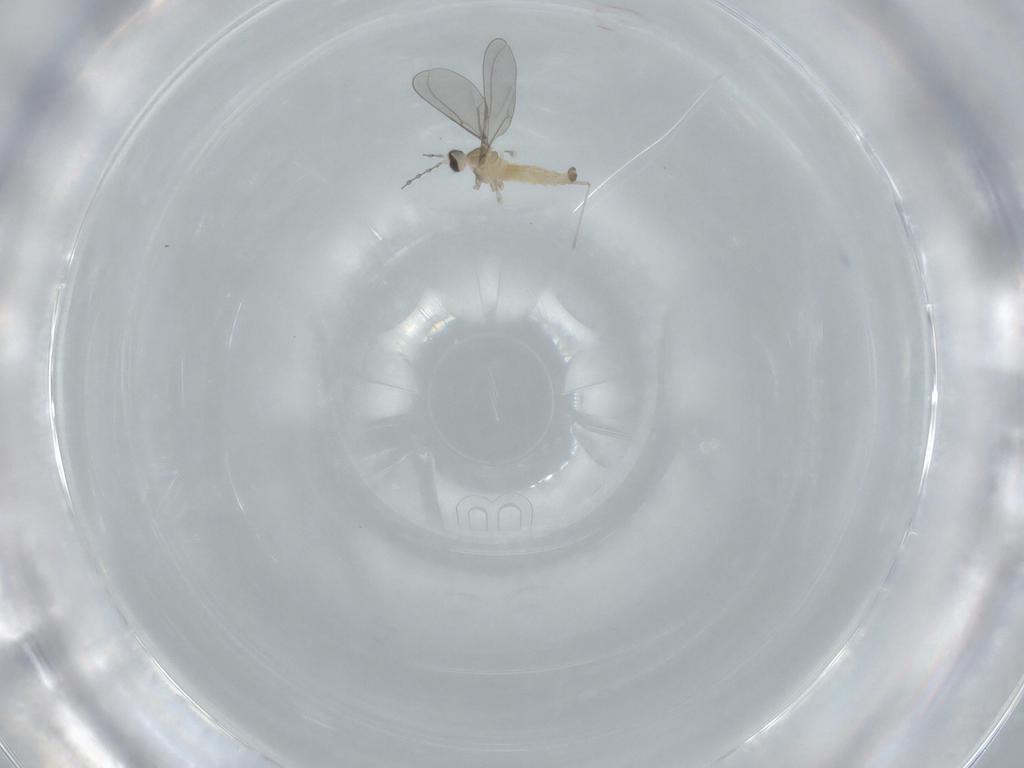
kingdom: Animalia
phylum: Arthropoda
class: Insecta
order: Diptera
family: Cecidomyiidae
